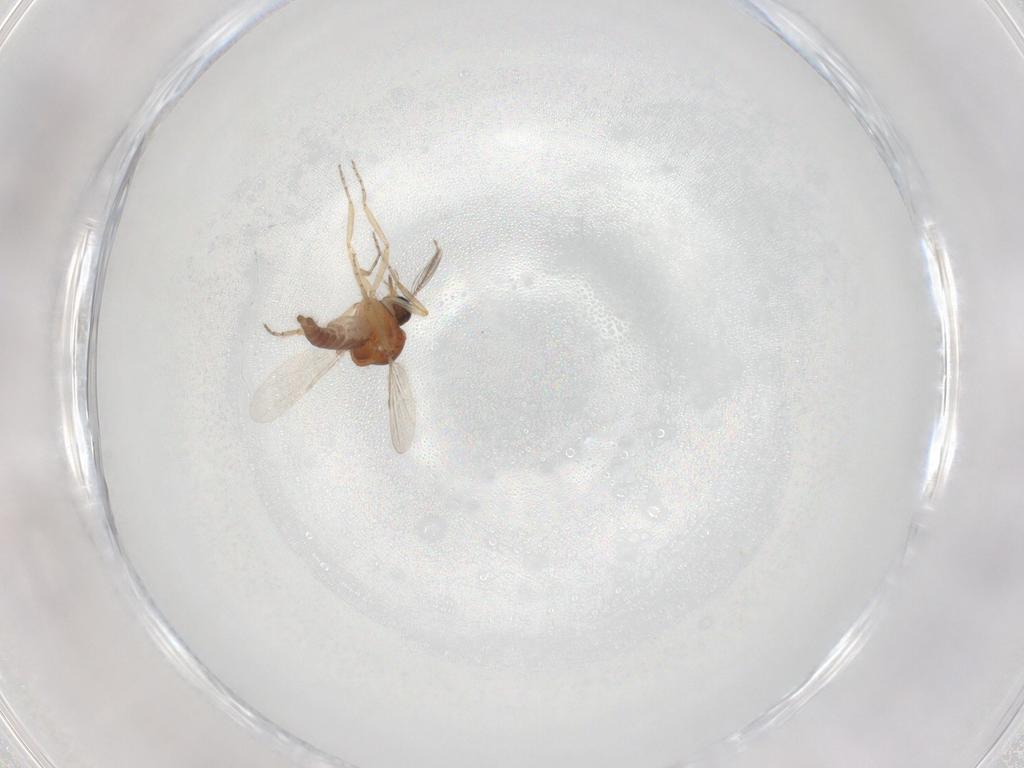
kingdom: Animalia
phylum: Arthropoda
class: Insecta
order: Diptera
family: Ceratopogonidae
